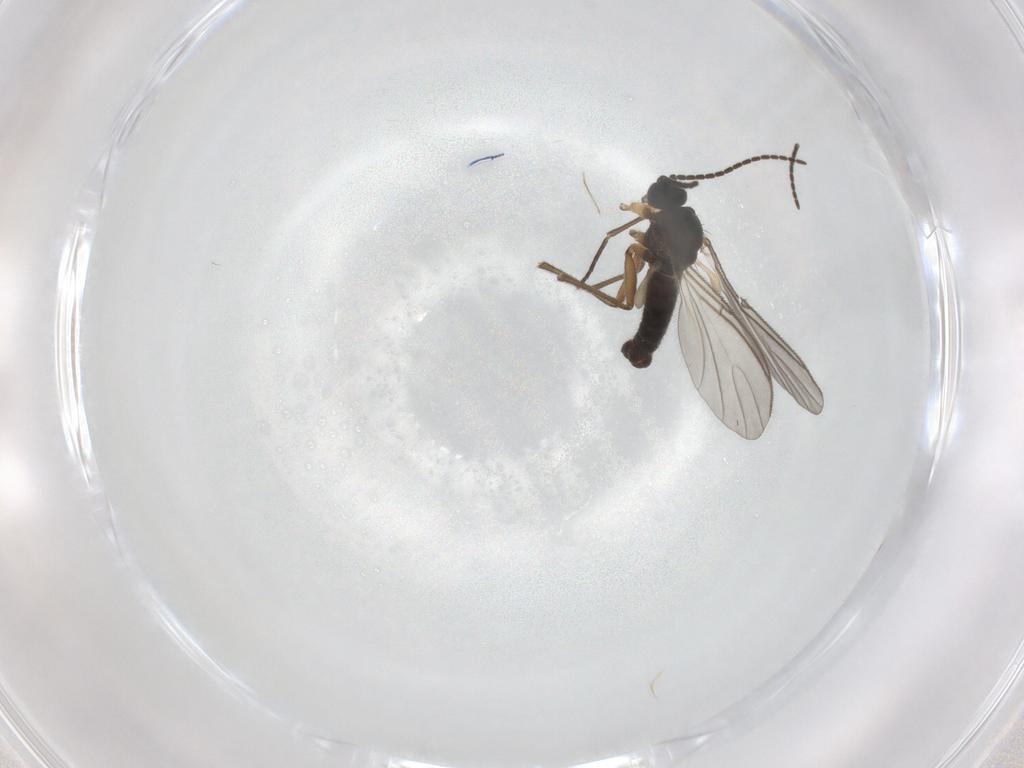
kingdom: Animalia
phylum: Arthropoda
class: Insecta
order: Diptera
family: Sciaridae
